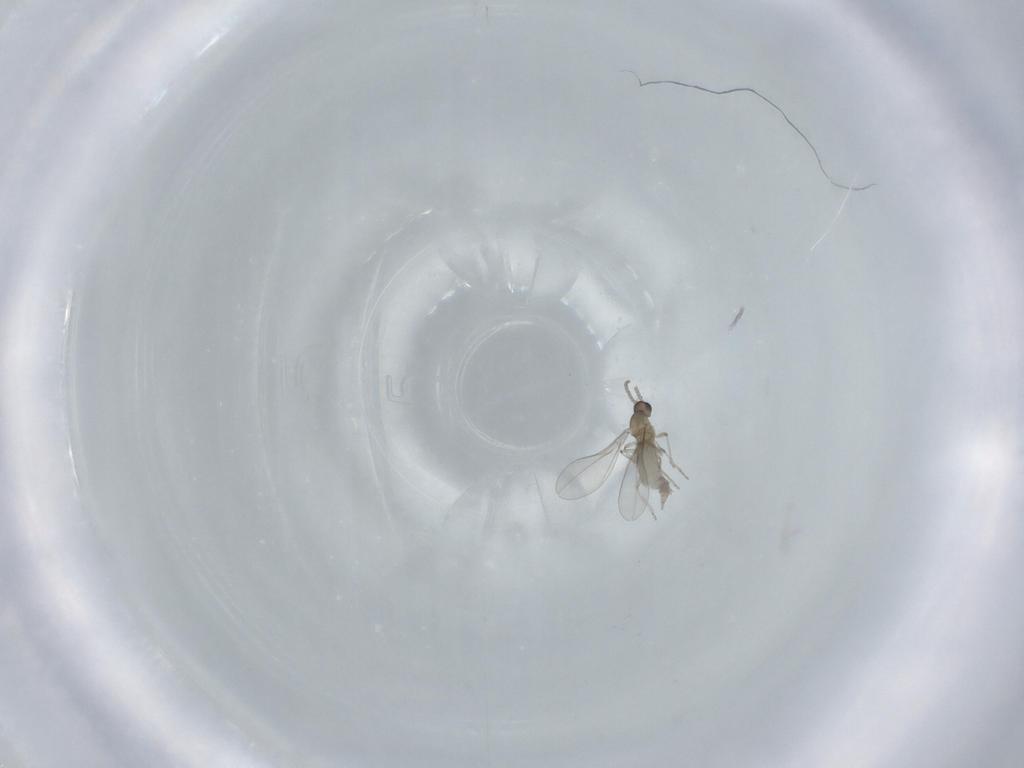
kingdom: Animalia
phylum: Arthropoda
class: Insecta
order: Diptera
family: Cecidomyiidae
